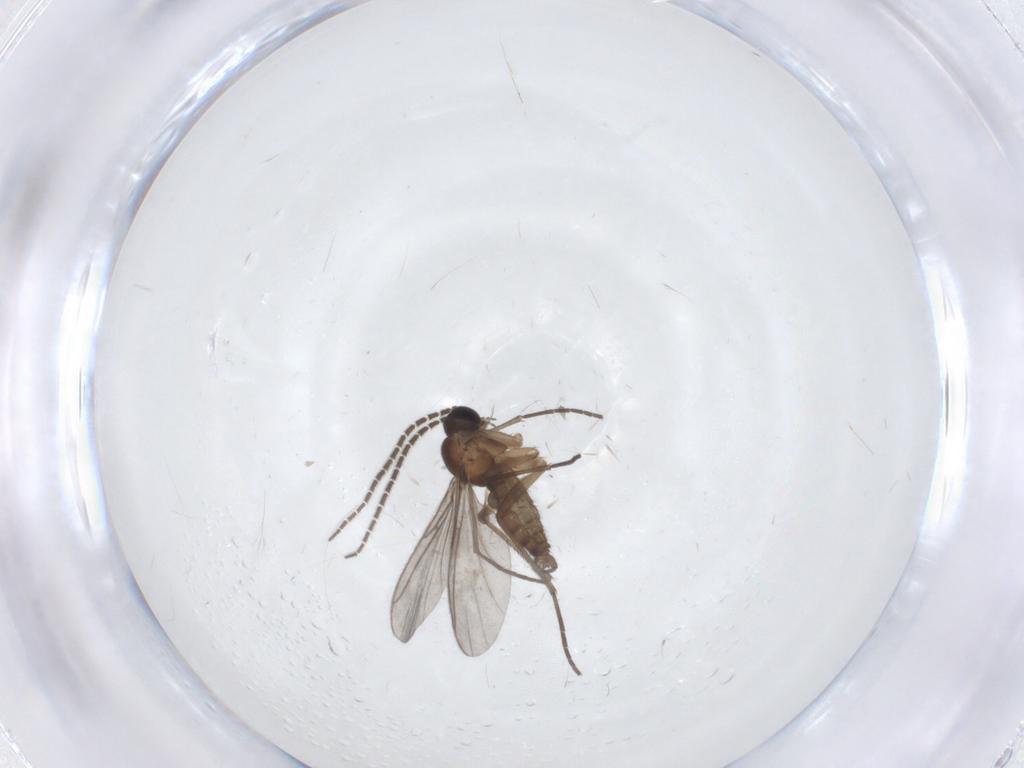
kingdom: Animalia
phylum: Arthropoda
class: Insecta
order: Diptera
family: Sciaridae
